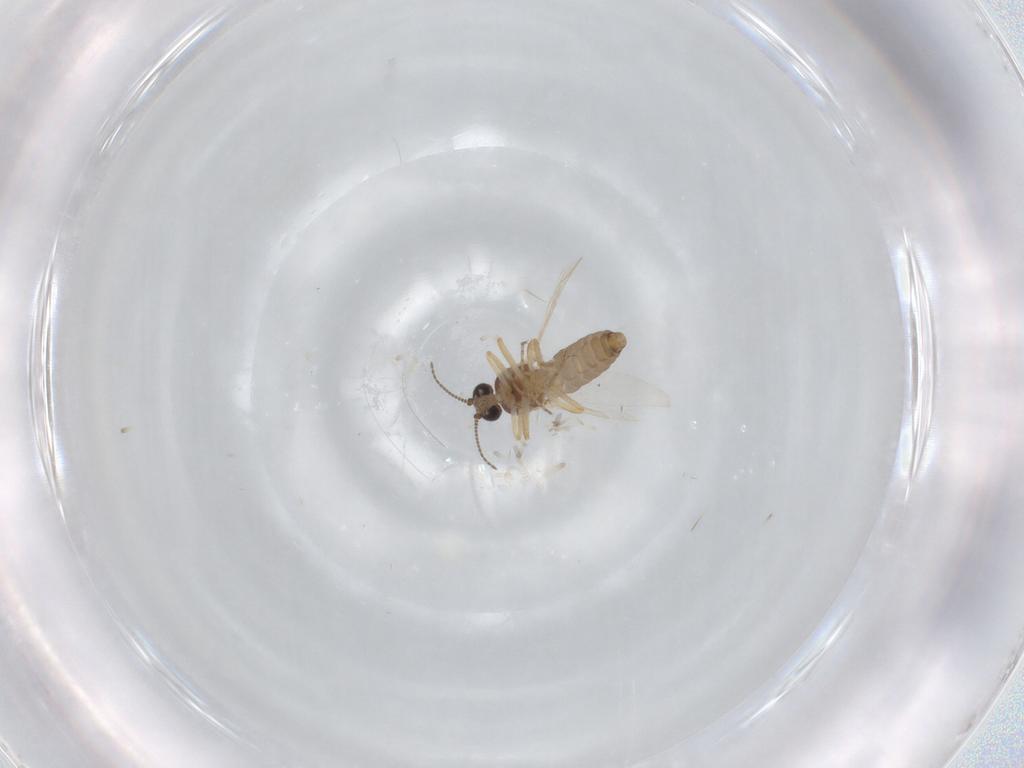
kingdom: Animalia
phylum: Arthropoda
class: Insecta
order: Diptera
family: Ceratopogonidae
